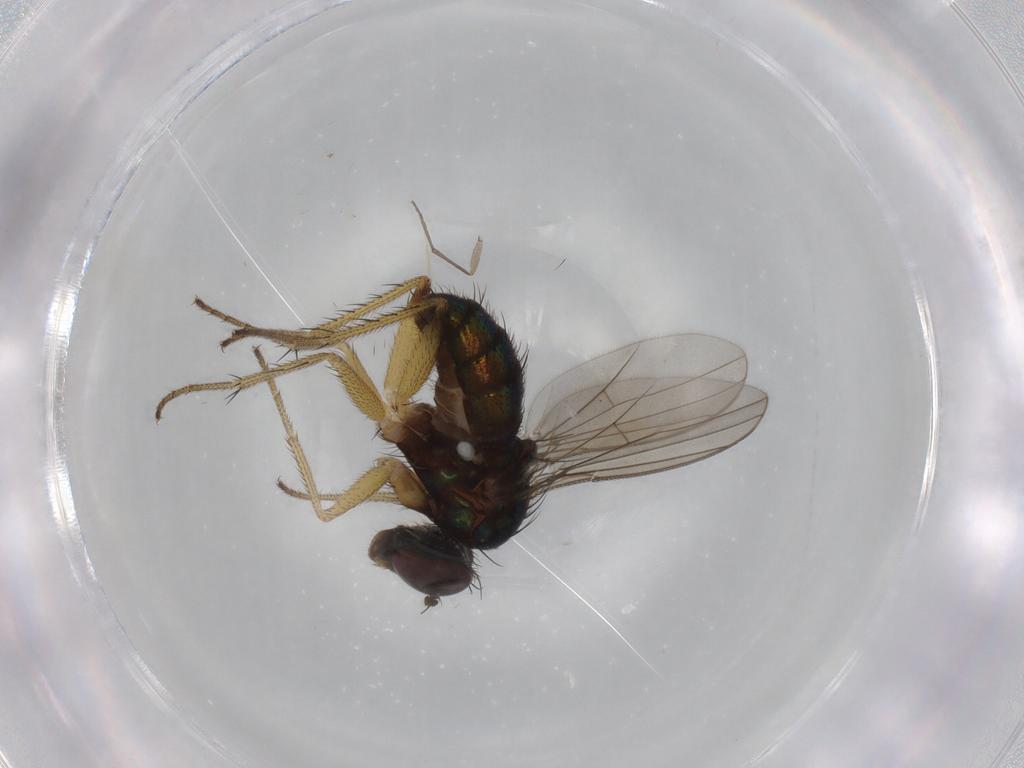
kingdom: Animalia
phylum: Arthropoda
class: Insecta
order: Diptera
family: Dolichopodidae
